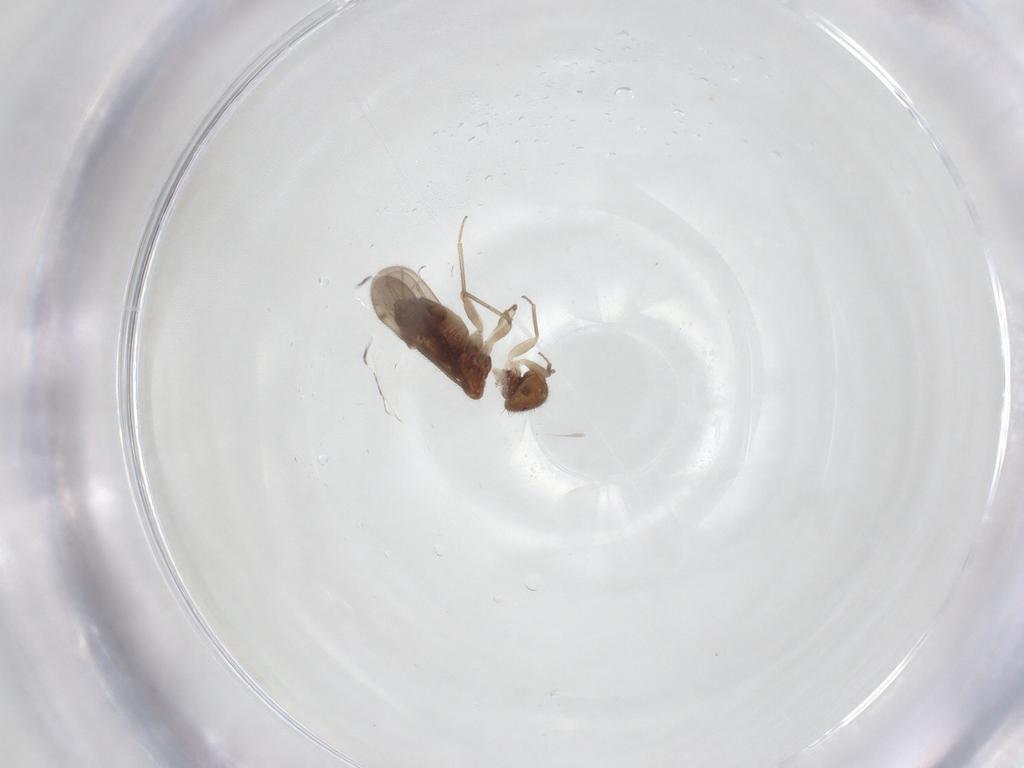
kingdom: Animalia
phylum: Arthropoda
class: Insecta
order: Psocodea
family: Ectopsocidae
